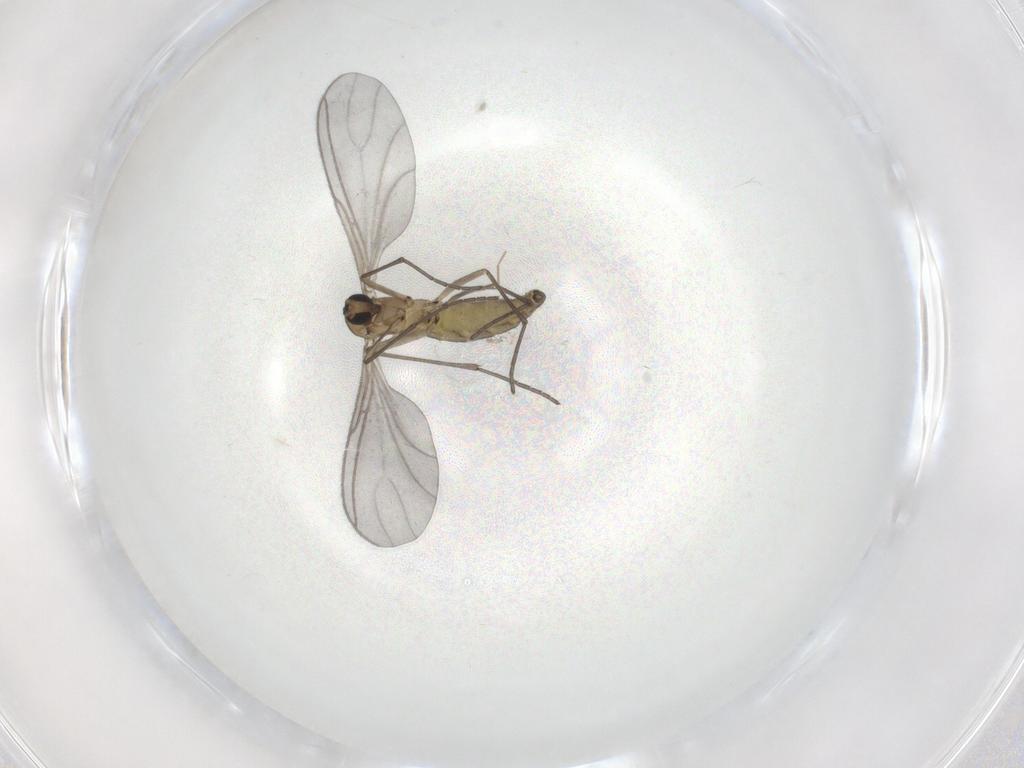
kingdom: Animalia
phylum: Arthropoda
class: Insecta
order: Diptera
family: Sciaridae
